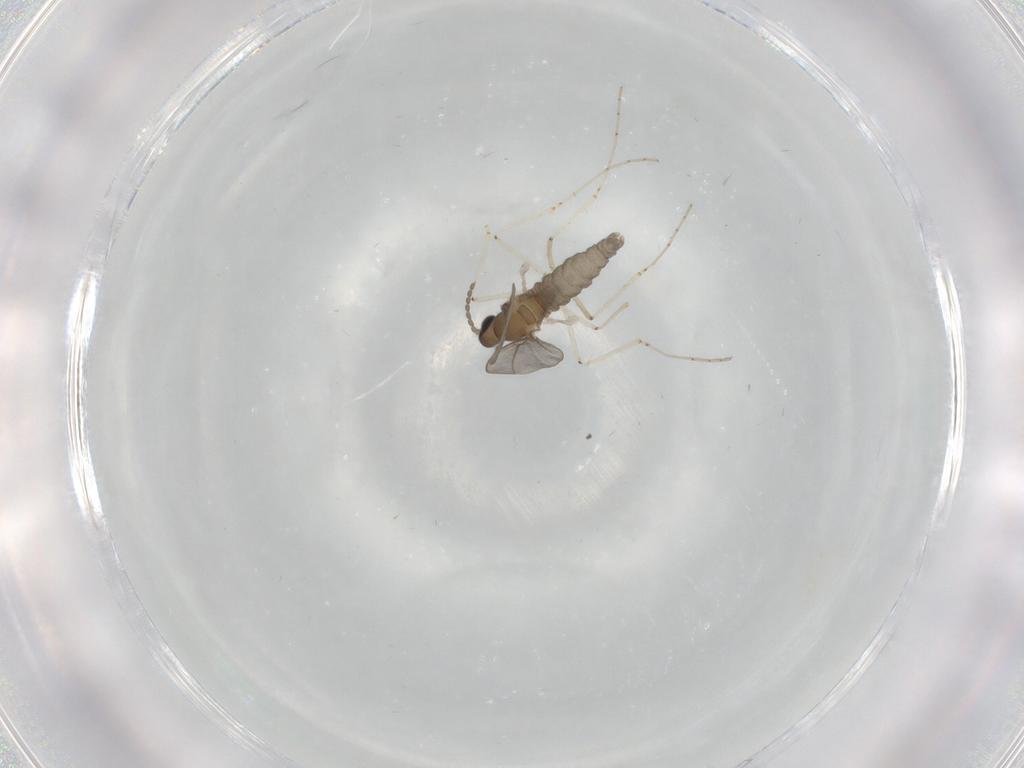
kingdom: Animalia
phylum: Arthropoda
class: Insecta
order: Diptera
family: Cecidomyiidae
